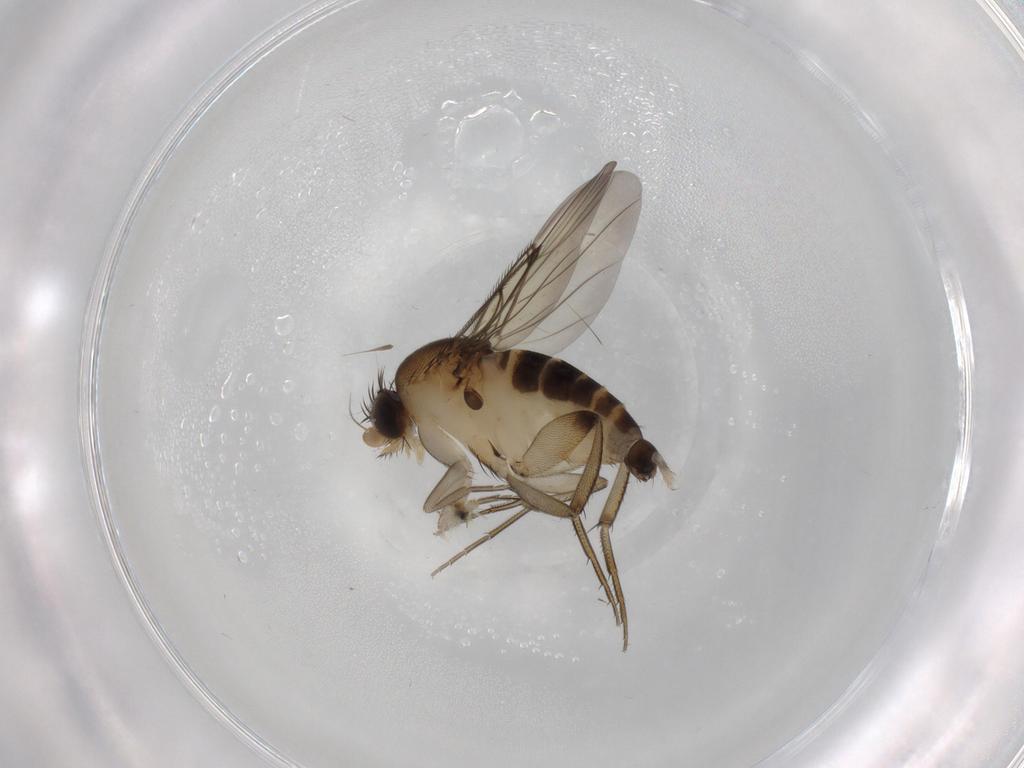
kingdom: Animalia
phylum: Arthropoda
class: Insecta
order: Diptera
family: Phoridae
